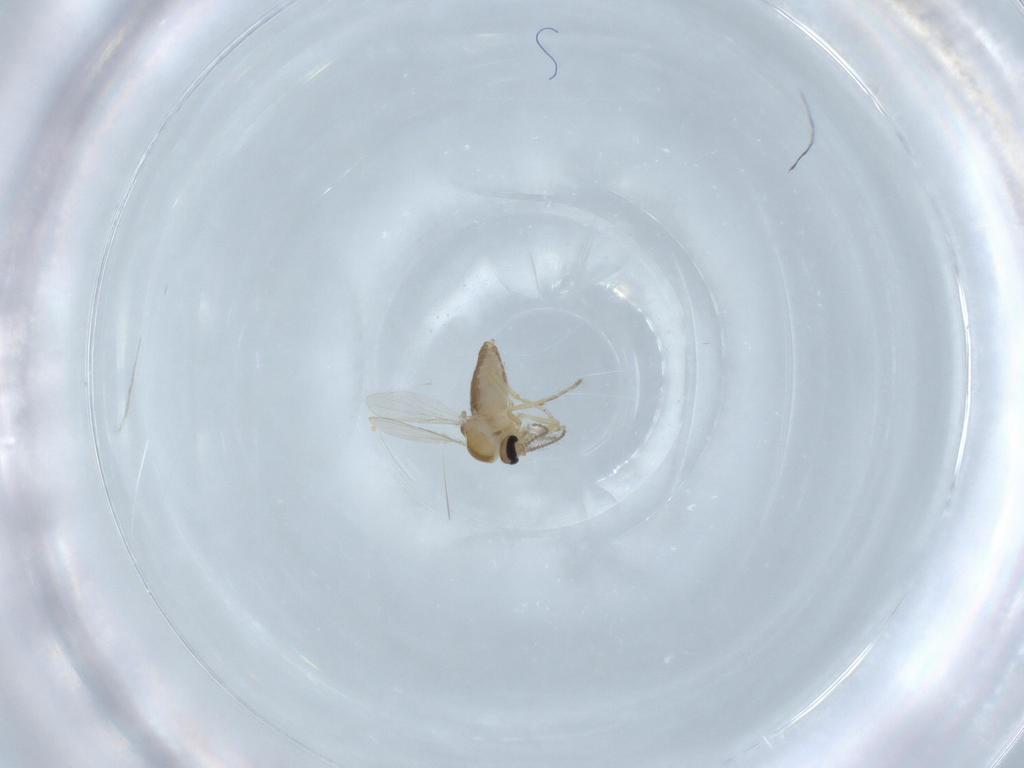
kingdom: Animalia
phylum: Arthropoda
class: Insecta
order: Diptera
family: Ceratopogonidae
